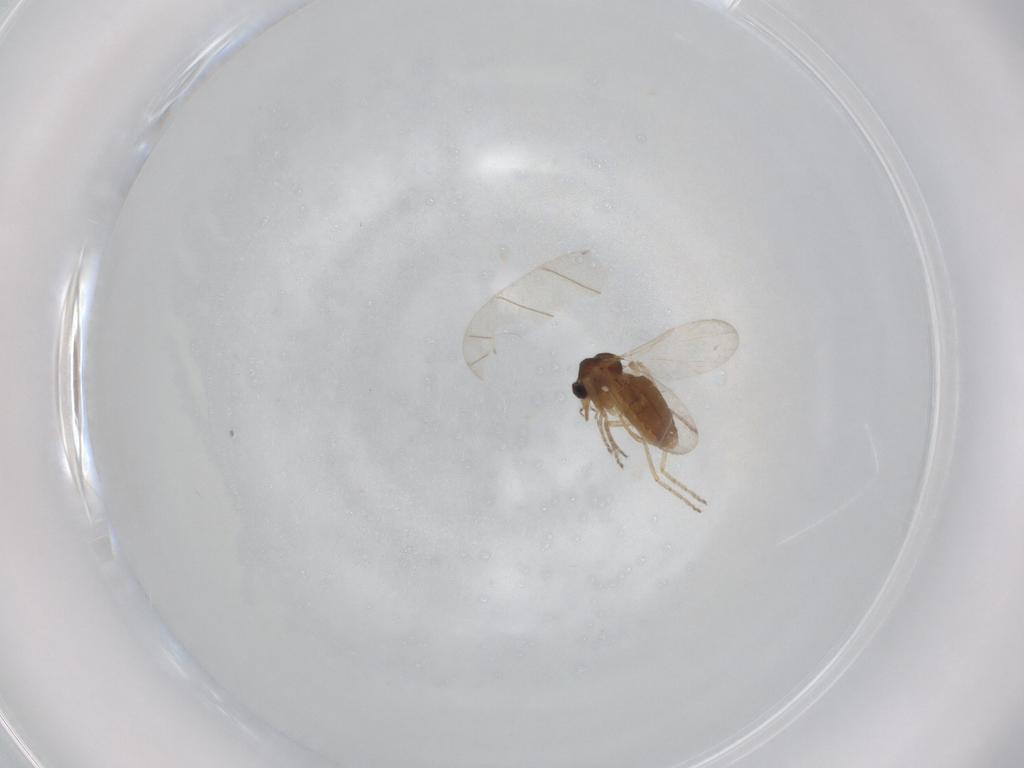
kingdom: Animalia
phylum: Arthropoda
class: Insecta
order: Diptera
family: Ceratopogonidae
